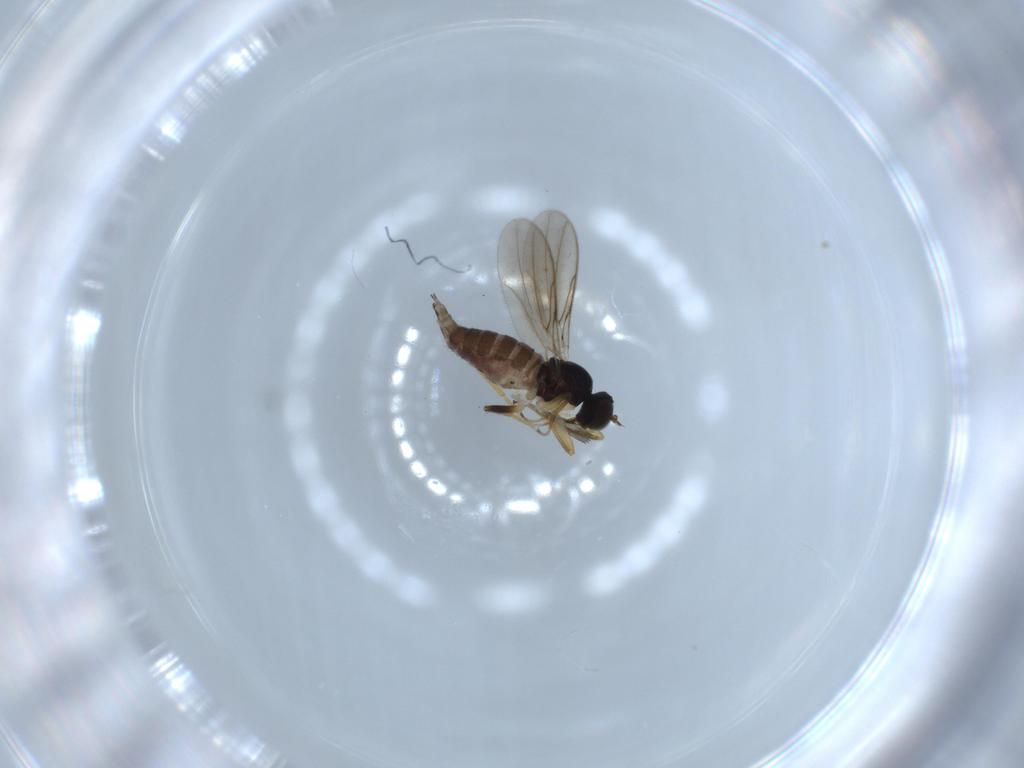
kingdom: Animalia
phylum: Arthropoda
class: Insecta
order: Diptera
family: Hybotidae
